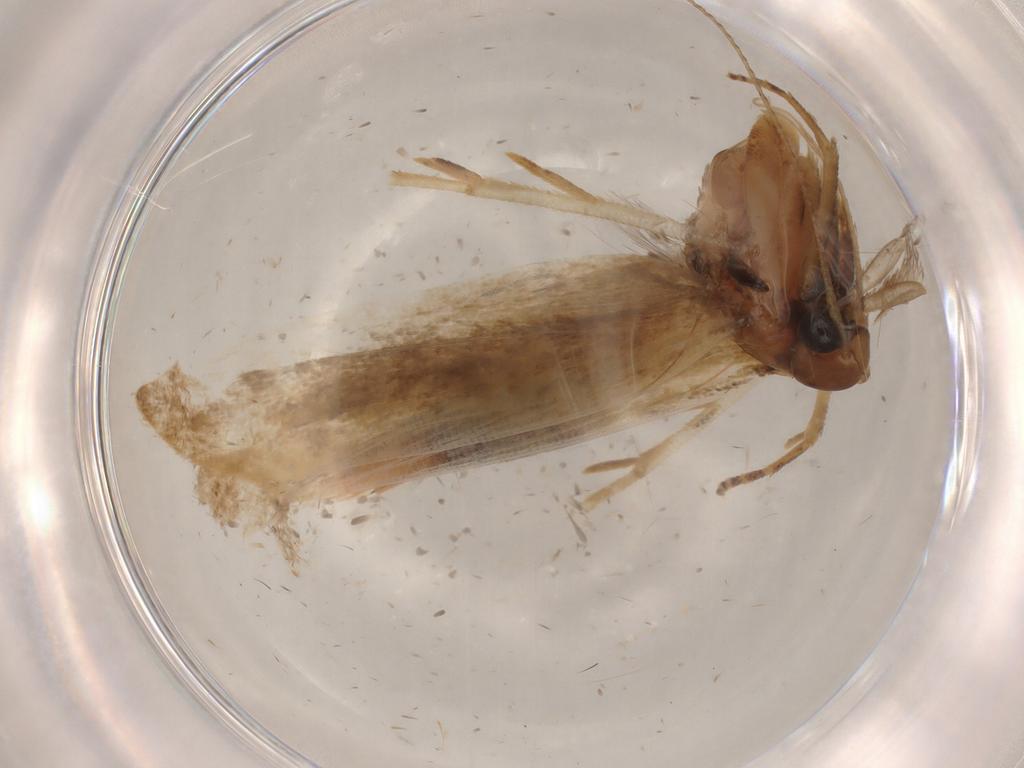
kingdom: Animalia
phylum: Arthropoda
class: Insecta
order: Lepidoptera
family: Gelechiidae
